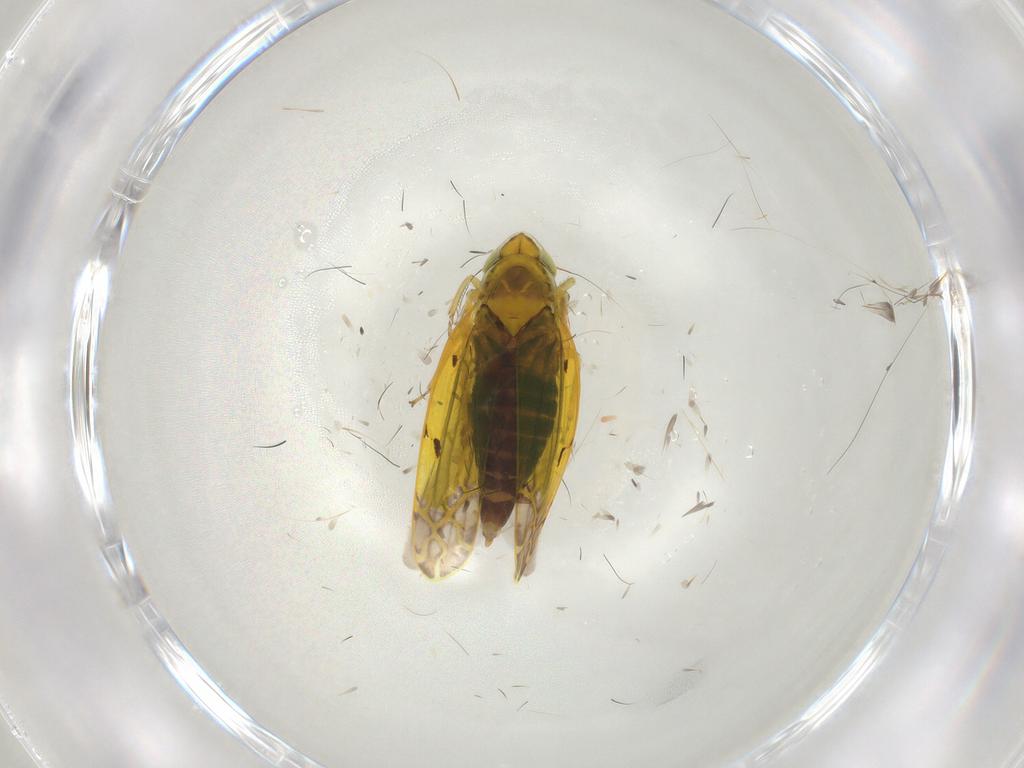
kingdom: Animalia
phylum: Arthropoda
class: Insecta
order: Hemiptera
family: Cicadellidae
